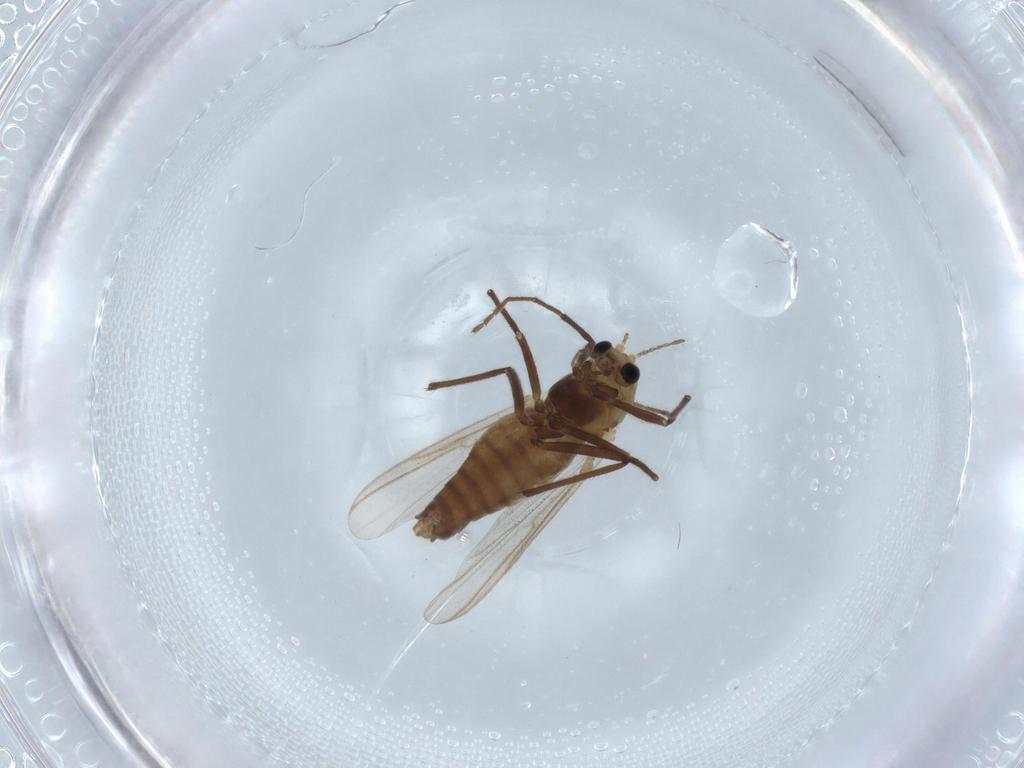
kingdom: Animalia
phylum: Arthropoda
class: Insecta
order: Diptera
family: Chironomidae
